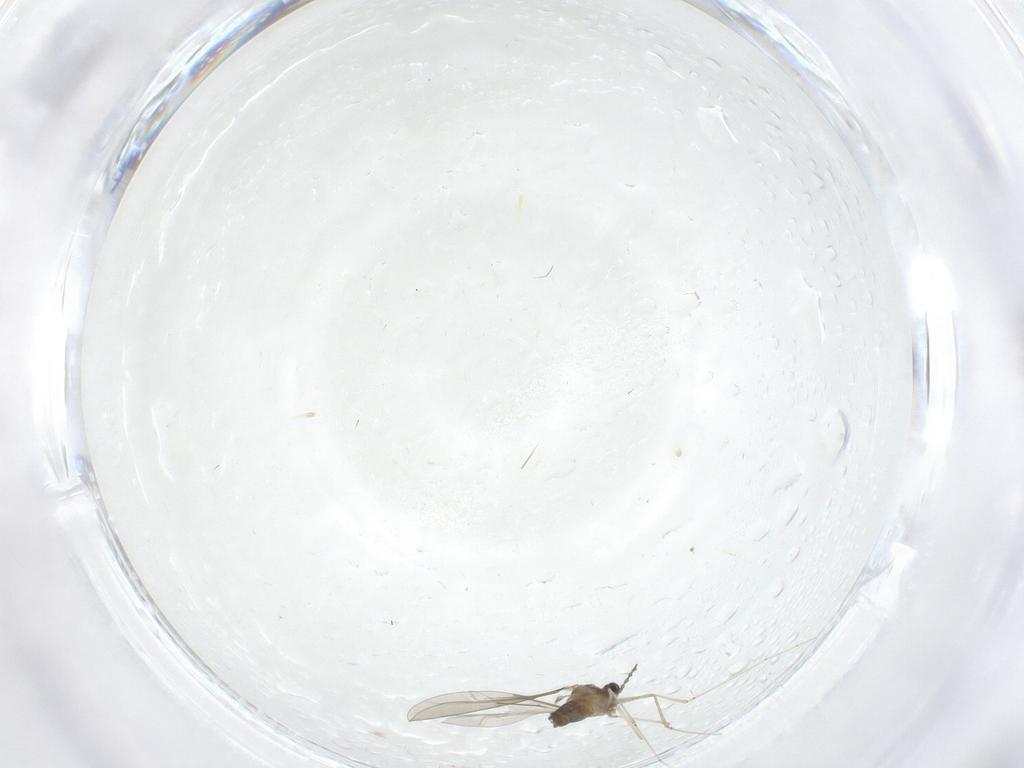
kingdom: Animalia
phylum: Arthropoda
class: Insecta
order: Diptera
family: Cecidomyiidae
